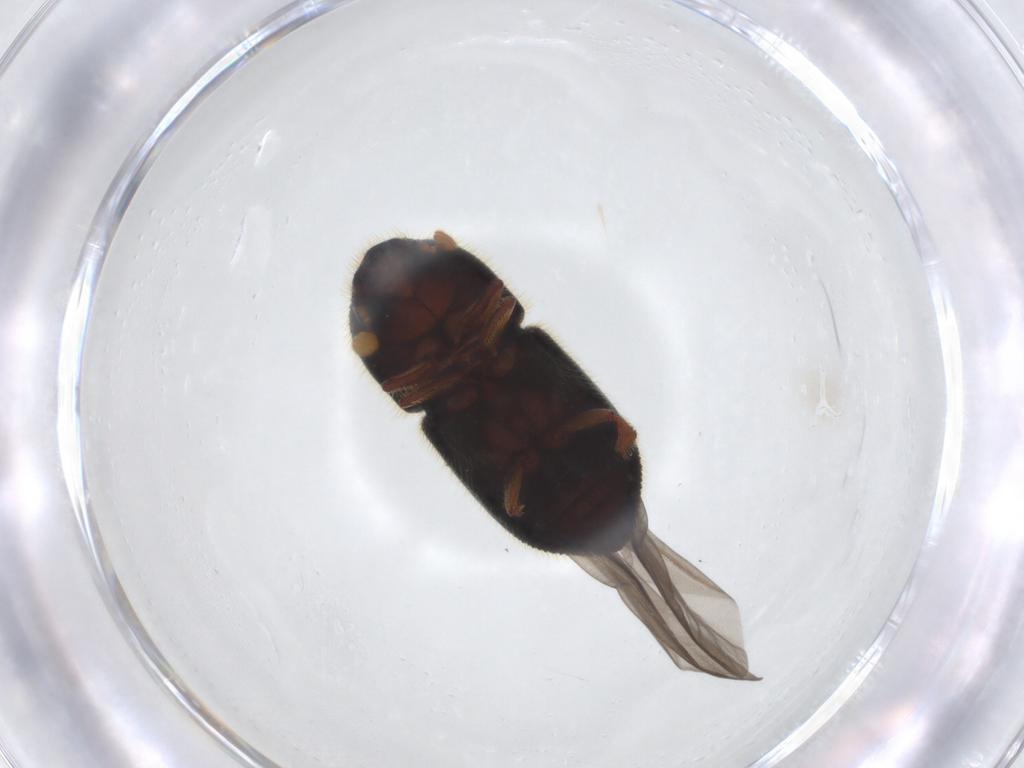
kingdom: Animalia
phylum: Arthropoda
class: Insecta
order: Coleoptera
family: Curculionidae
